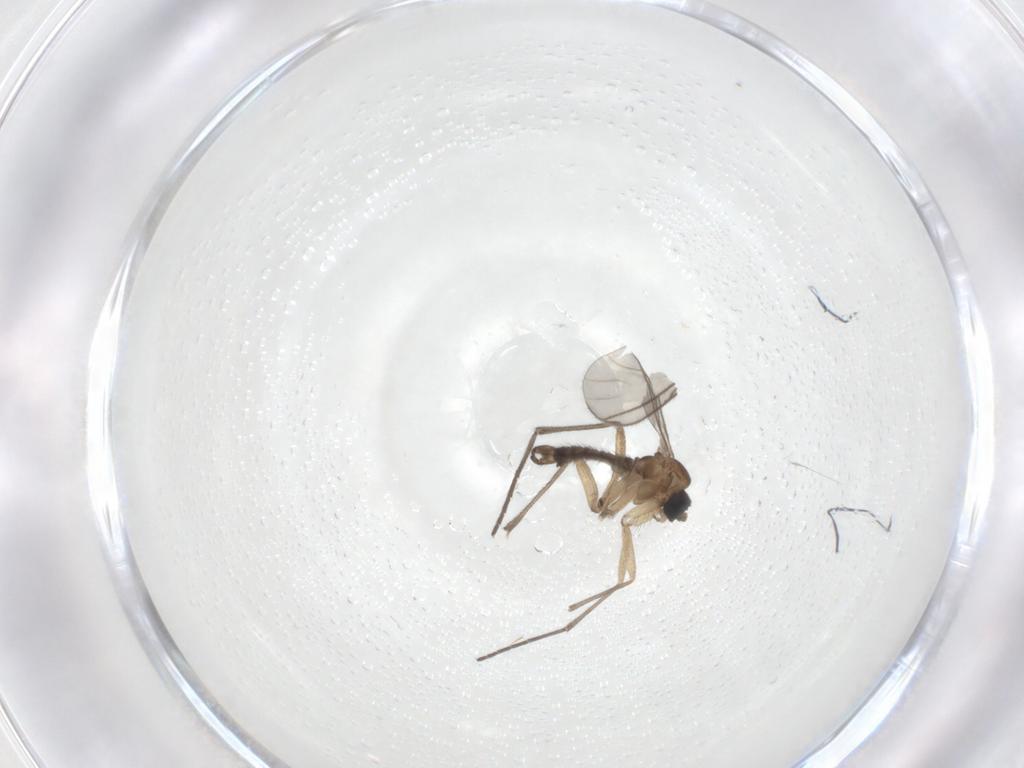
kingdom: Animalia
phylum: Arthropoda
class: Insecta
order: Diptera
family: Sciaridae
